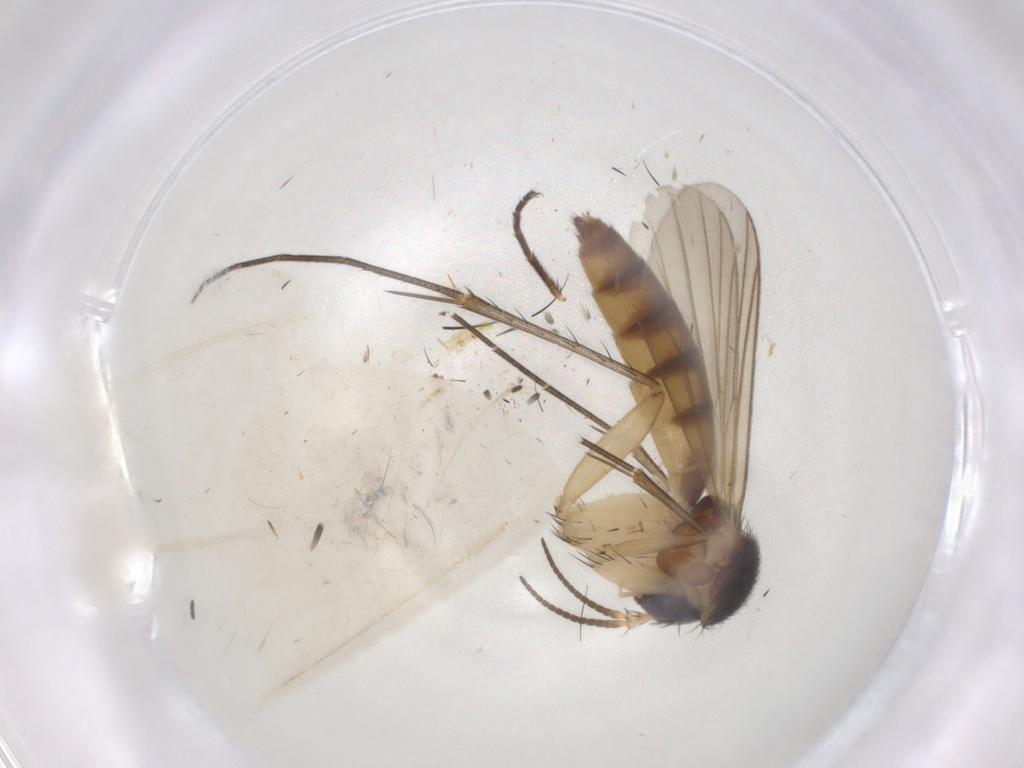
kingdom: Animalia
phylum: Arthropoda
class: Insecta
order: Diptera
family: Muscidae
